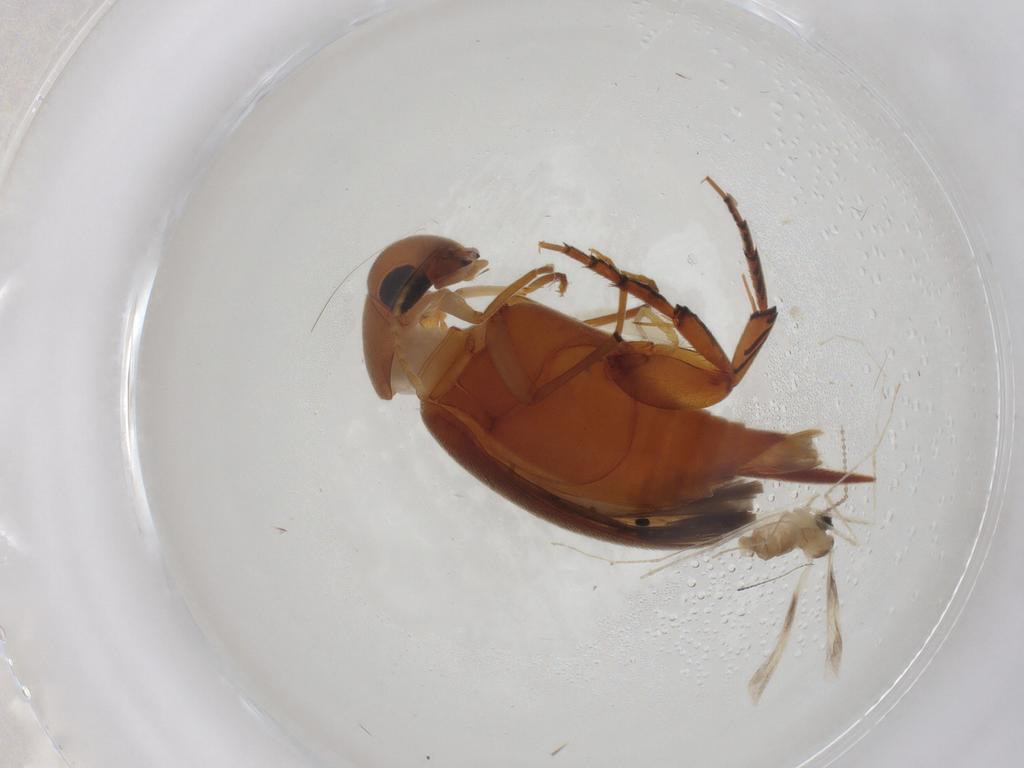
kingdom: Animalia
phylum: Arthropoda
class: Insecta
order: Coleoptera
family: Mordellidae
